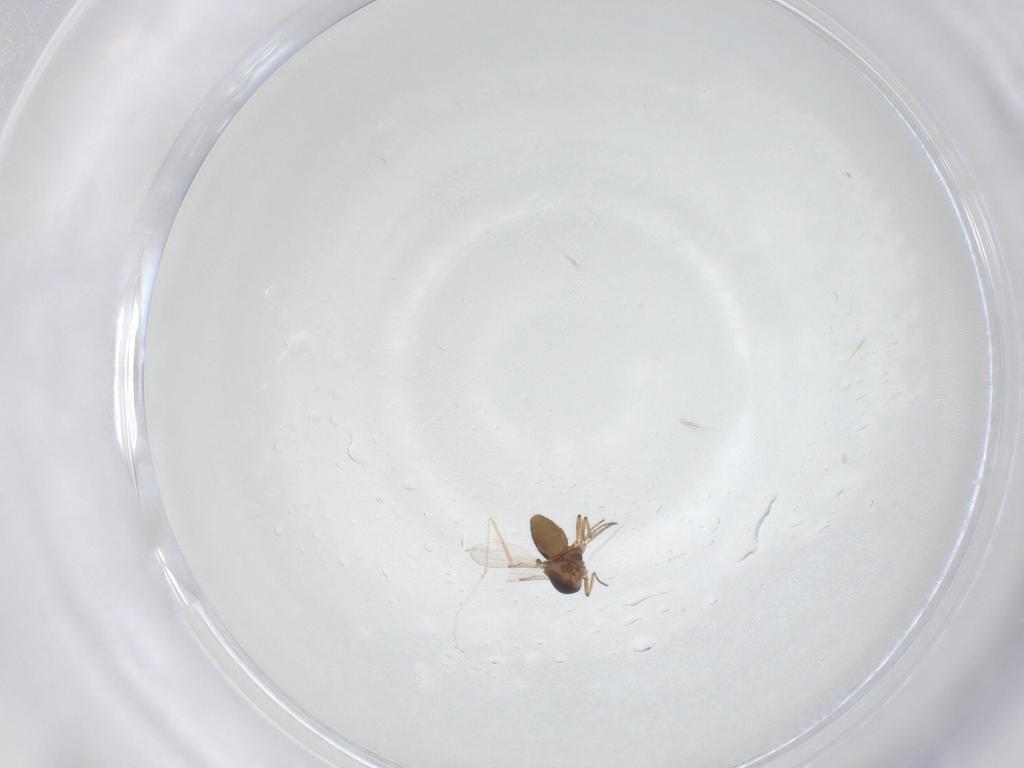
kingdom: Animalia
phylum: Arthropoda
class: Insecta
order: Diptera
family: Ceratopogonidae
